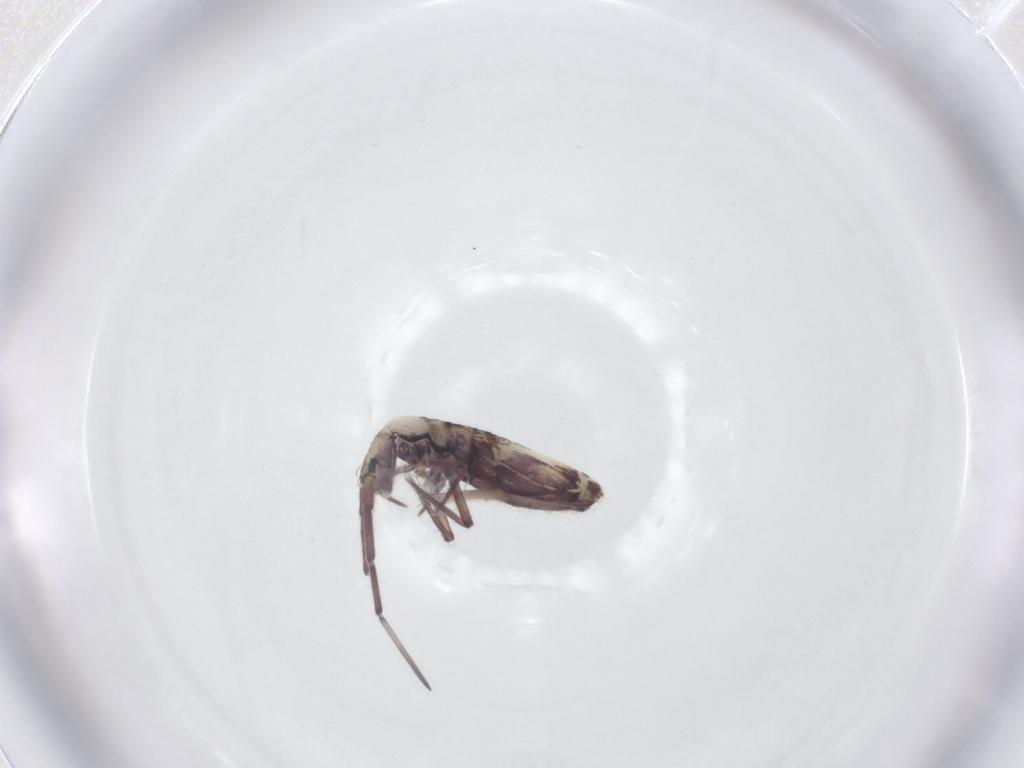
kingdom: Animalia
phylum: Arthropoda
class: Collembola
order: Entomobryomorpha
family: Entomobryidae
